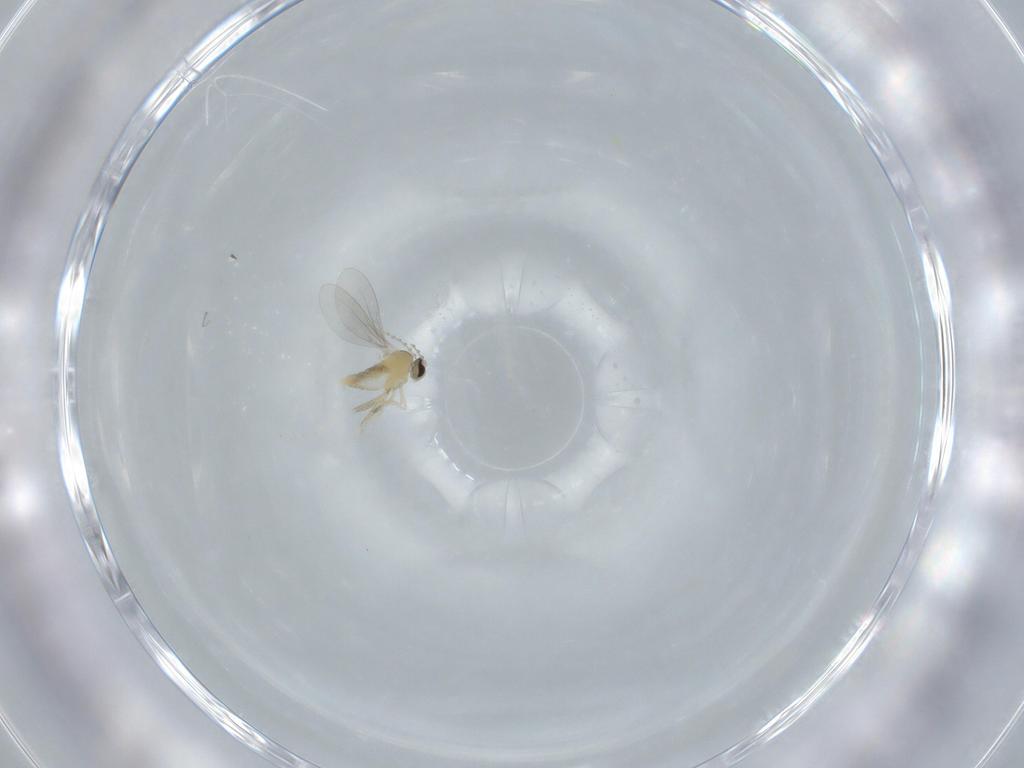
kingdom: Animalia
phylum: Arthropoda
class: Insecta
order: Diptera
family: Cecidomyiidae
